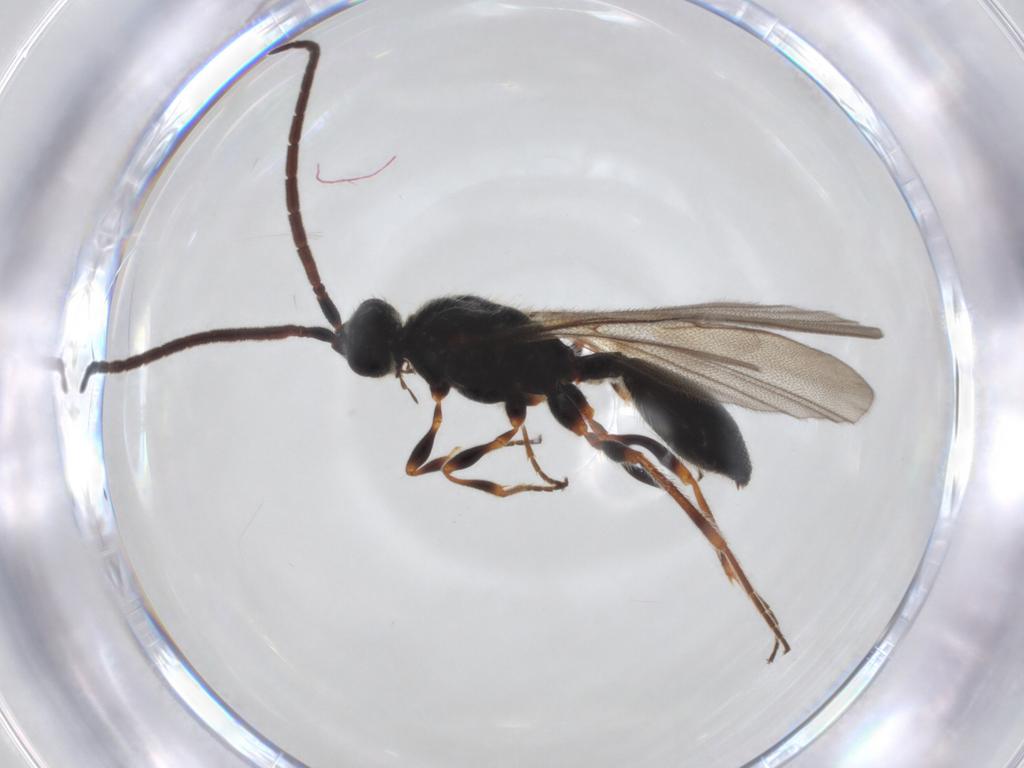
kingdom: Animalia
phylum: Arthropoda
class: Insecta
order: Hymenoptera
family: Diapriidae
